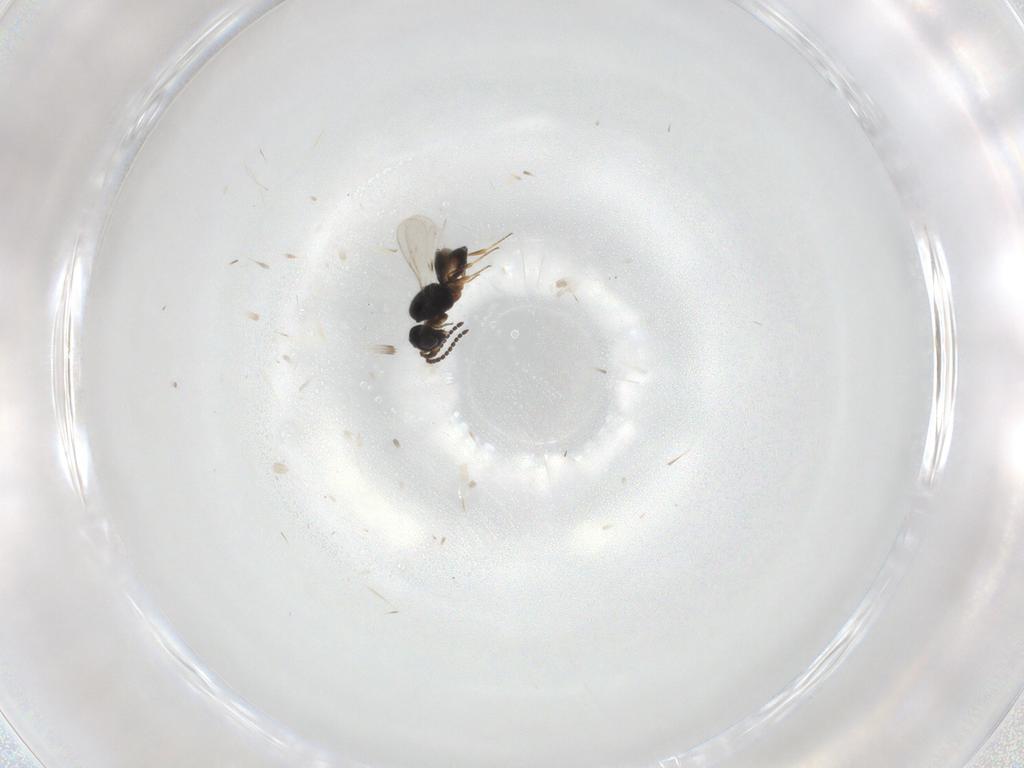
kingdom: Animalia
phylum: Arthropoda
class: Insecta
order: Hymenoptera
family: Scelionidae
